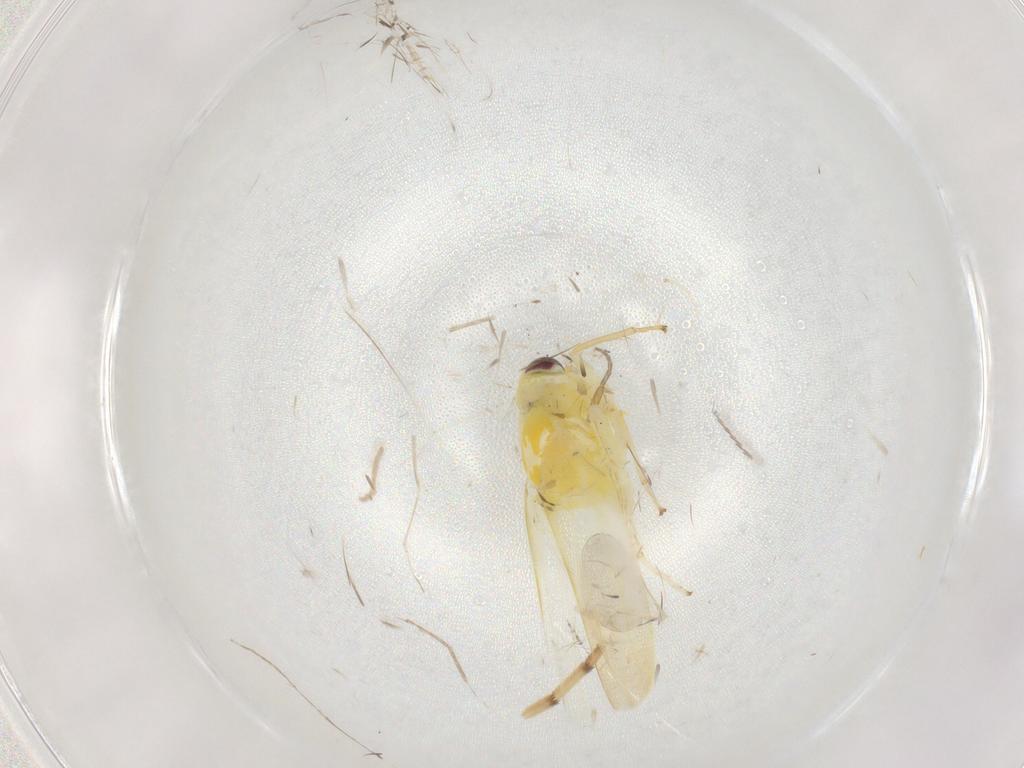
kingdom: Animalia
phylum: Arthropoda
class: Insecta
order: Hemiptera
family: Cicadellidae
